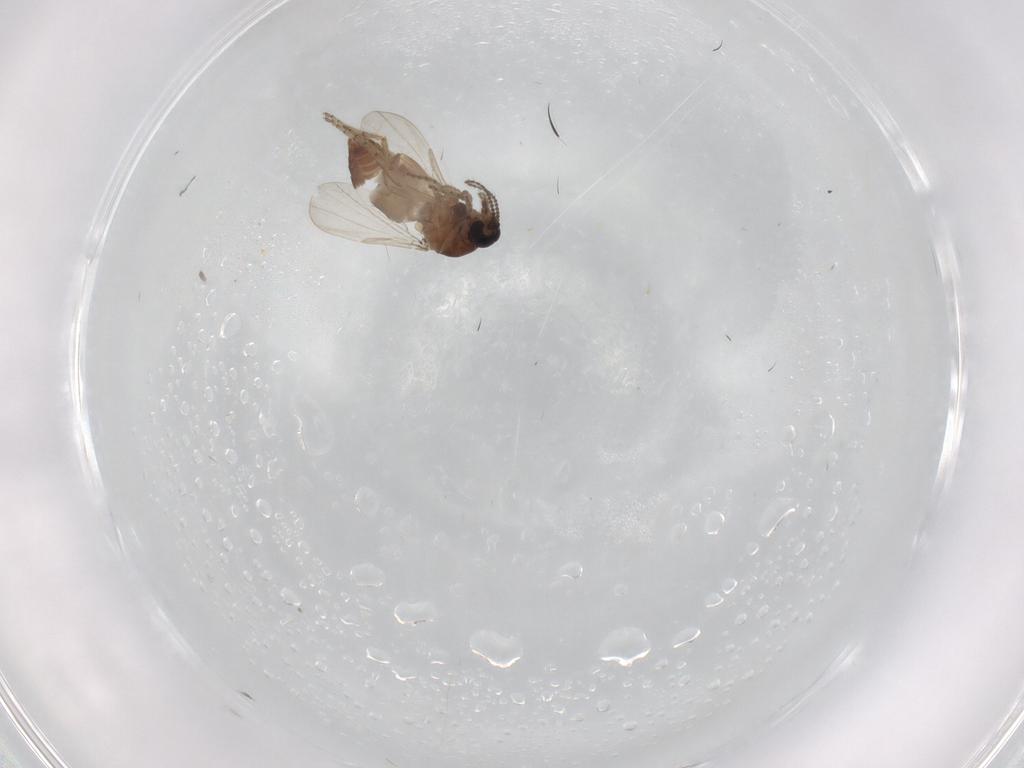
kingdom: Animalia
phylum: Arthropoda
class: Insecta
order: Diptera
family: Ceratopogonidae
